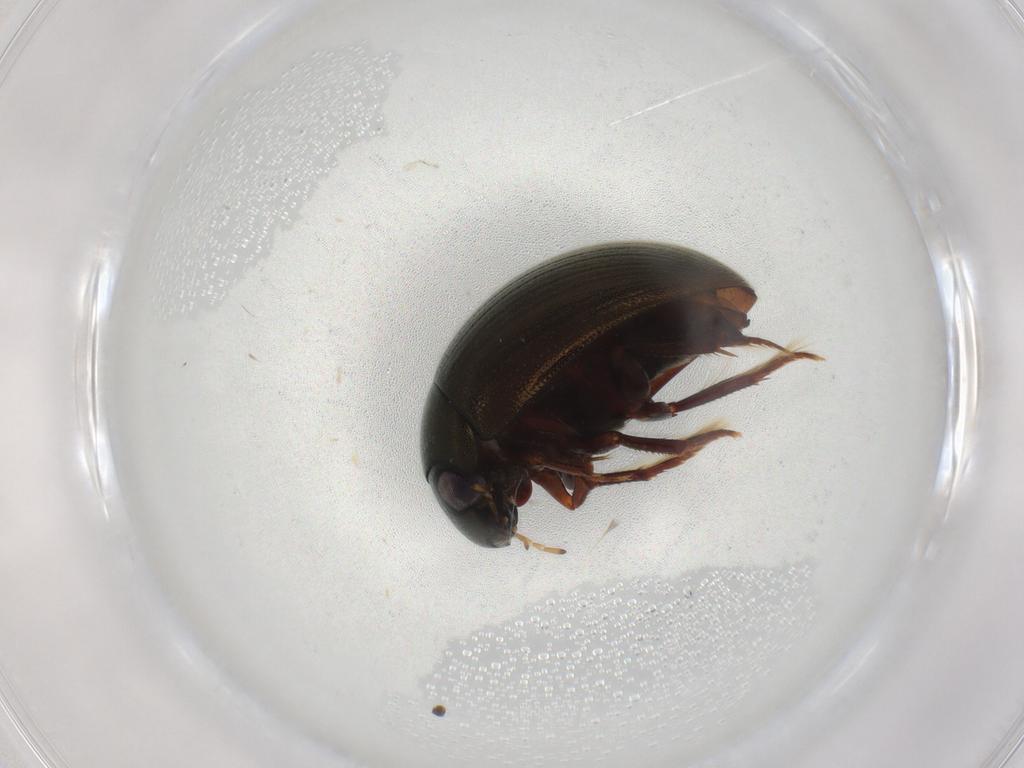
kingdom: Animalia
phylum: Arthropoda
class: Insecta
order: Coleoptera
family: Carabidae
